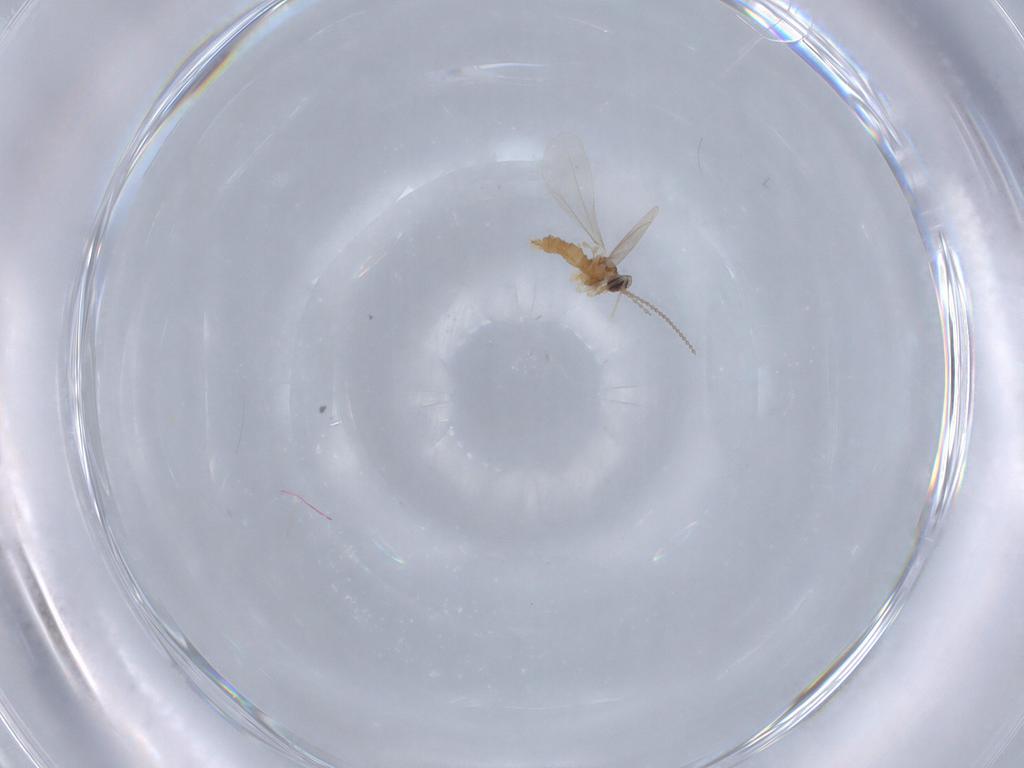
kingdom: Animalia
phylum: Arthropoda
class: Insecta
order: Diptera
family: Cecidomyiidae
